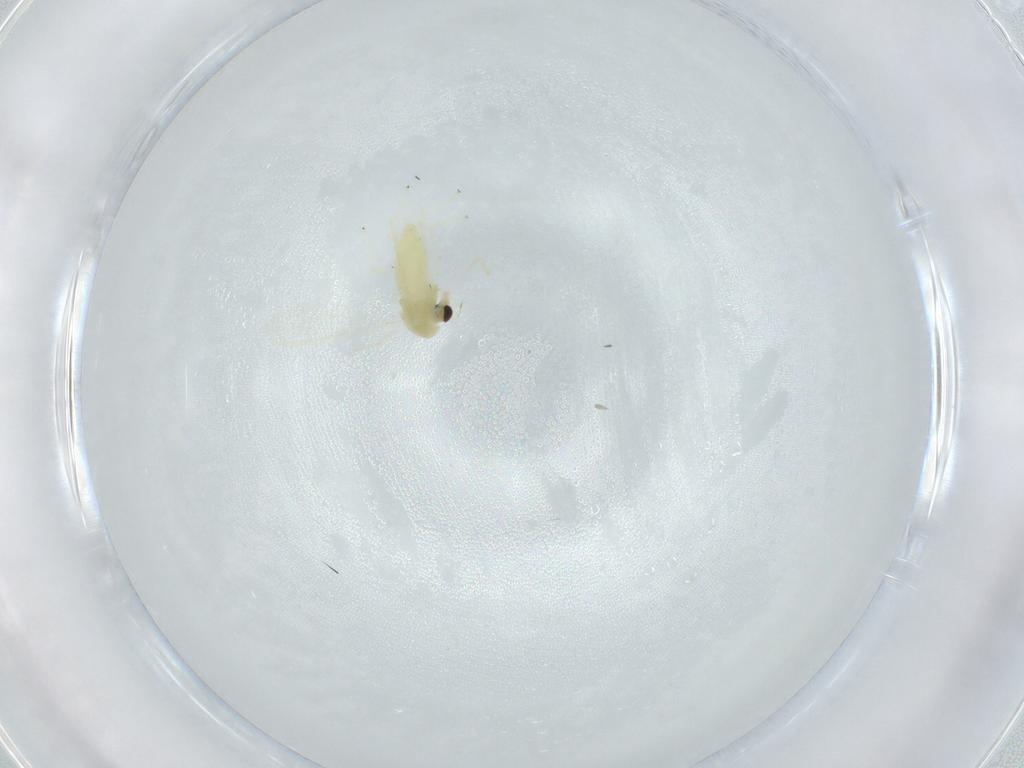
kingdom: Animalia
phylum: Arthropoda
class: Insecta
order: Diptera
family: Chironomidae
